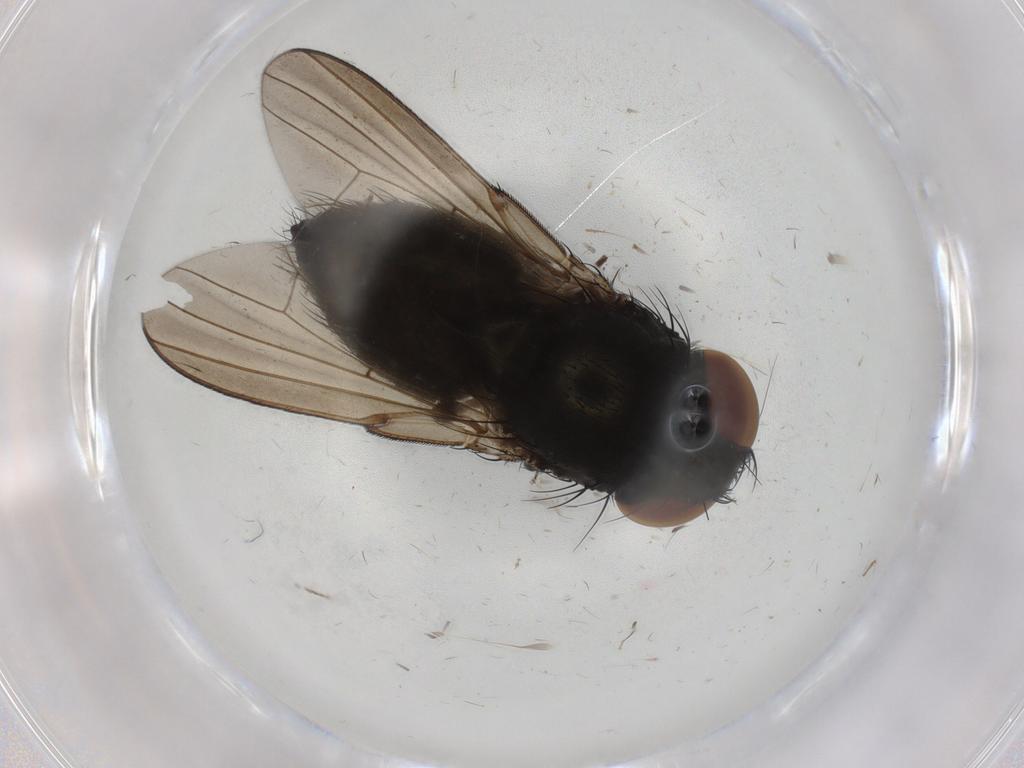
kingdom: Animalia
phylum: Arthropoda
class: Insecta
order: Diptera
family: Milichiidae
